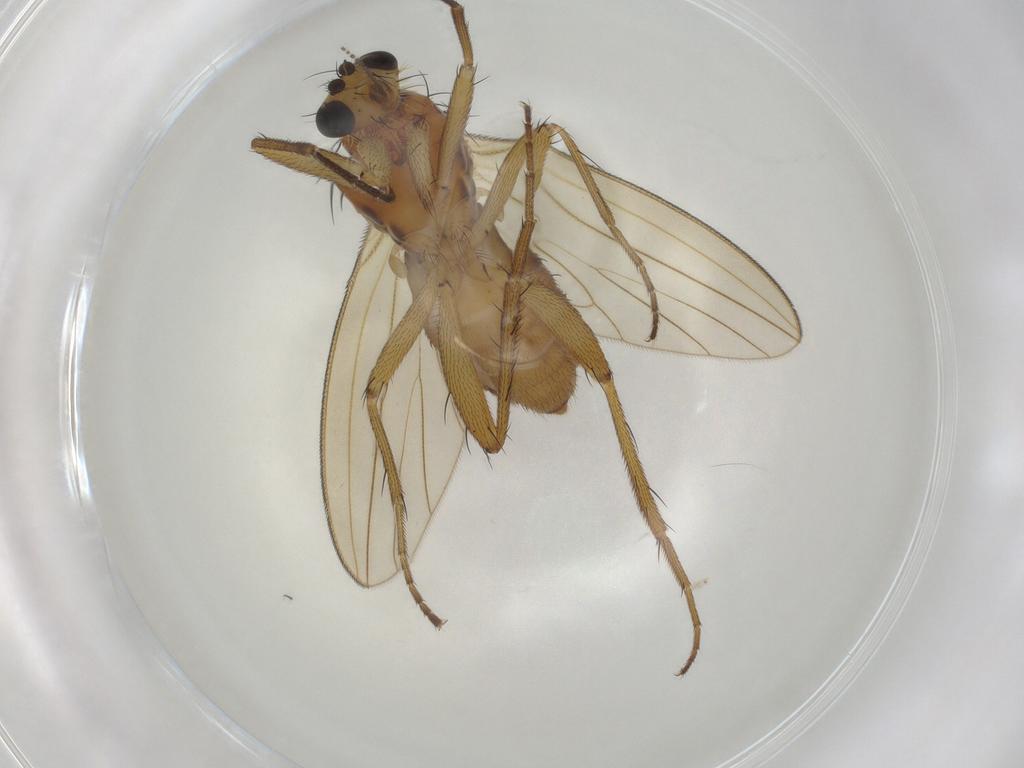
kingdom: Animalia
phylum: Arthropoda
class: Insecta
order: Diptera
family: Lonchopteridae
